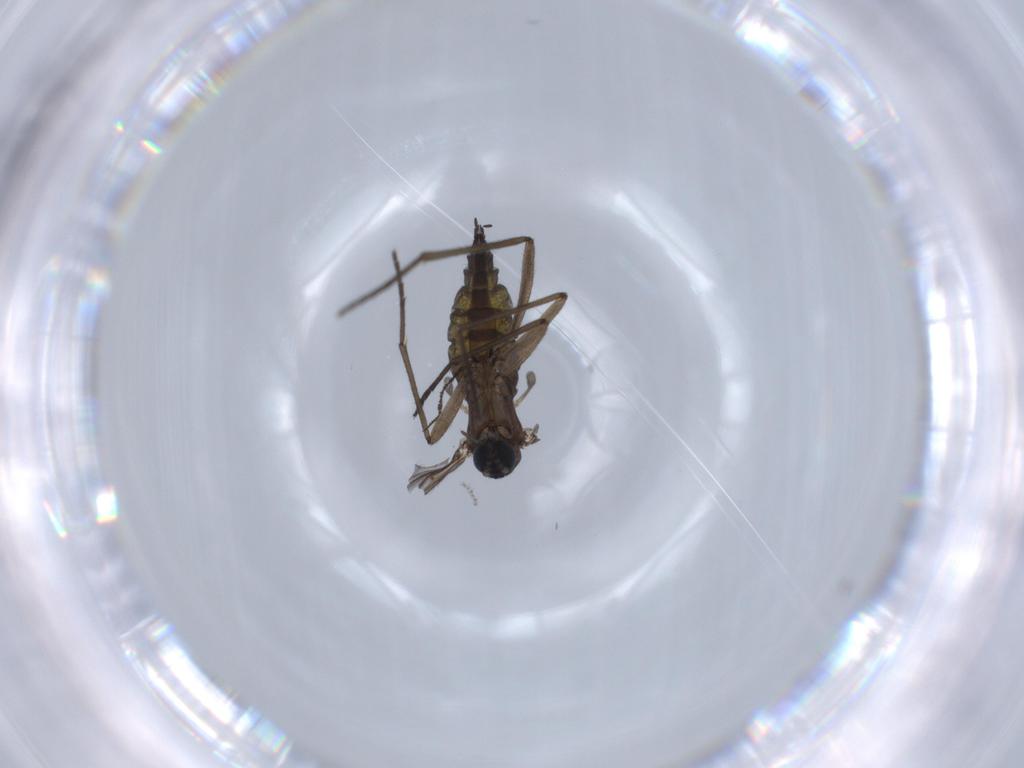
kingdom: Animalia
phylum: Arthropoda
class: Insecta
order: Diptera
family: Sciaridae
